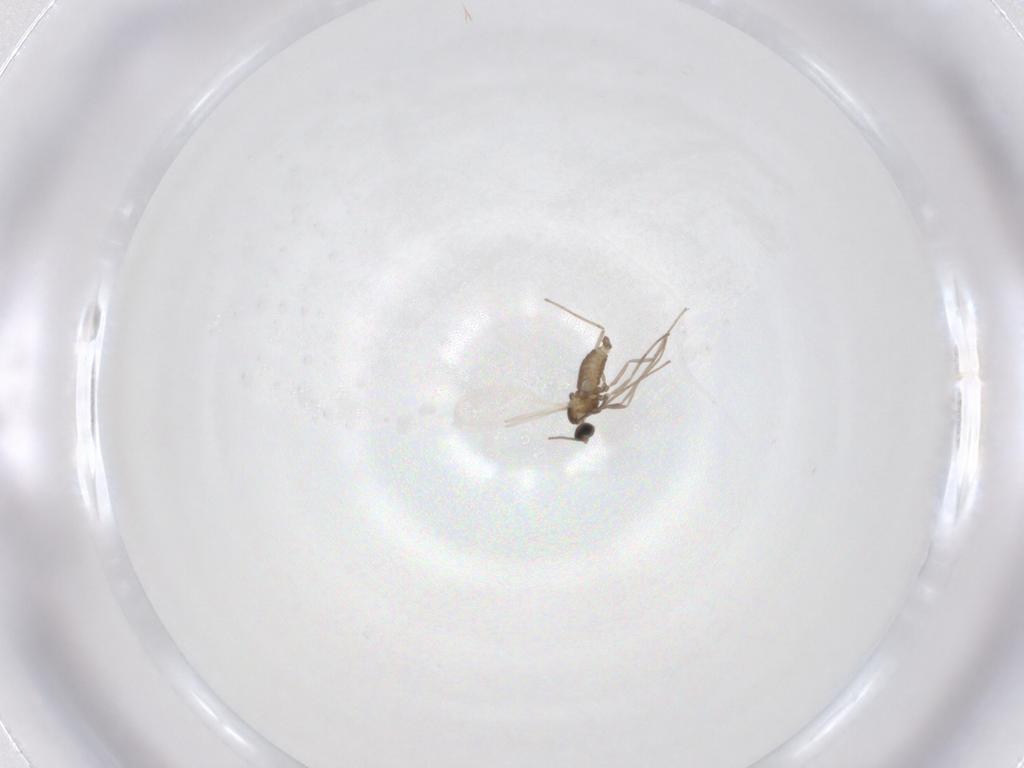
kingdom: Animalia
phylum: Arthropoda
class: Insecta
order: Diptera
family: Cecidomyiidae
